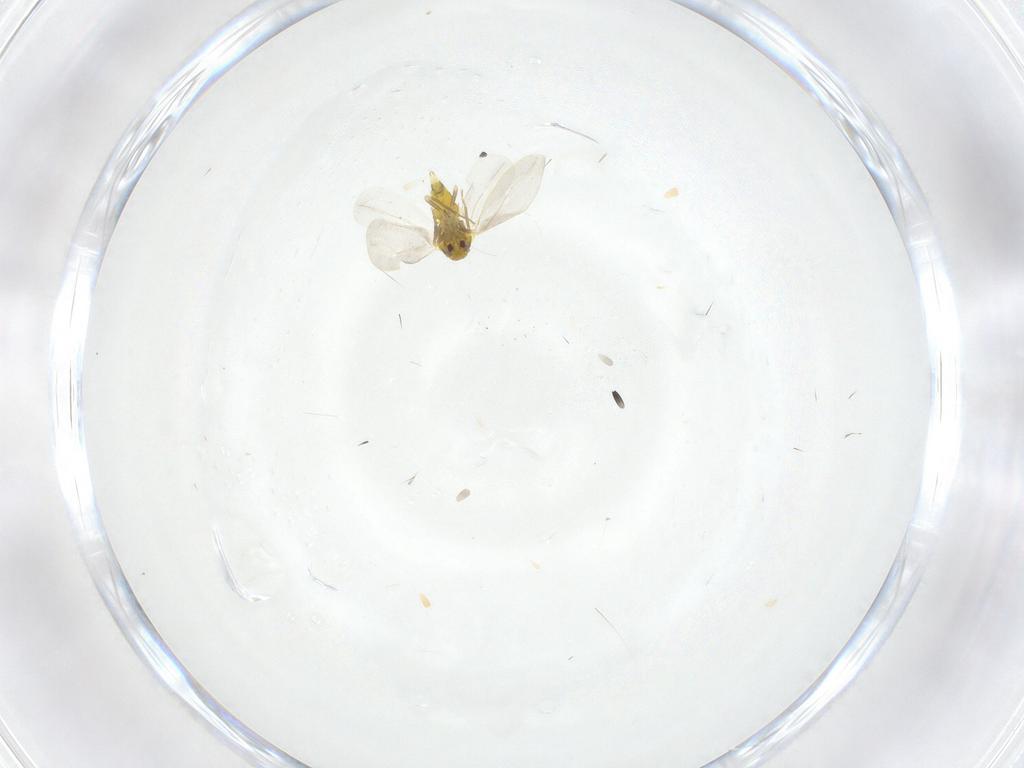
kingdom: Animalia
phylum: Arthropoda
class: Insecta
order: Hemiptera
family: Aleyrodidae
